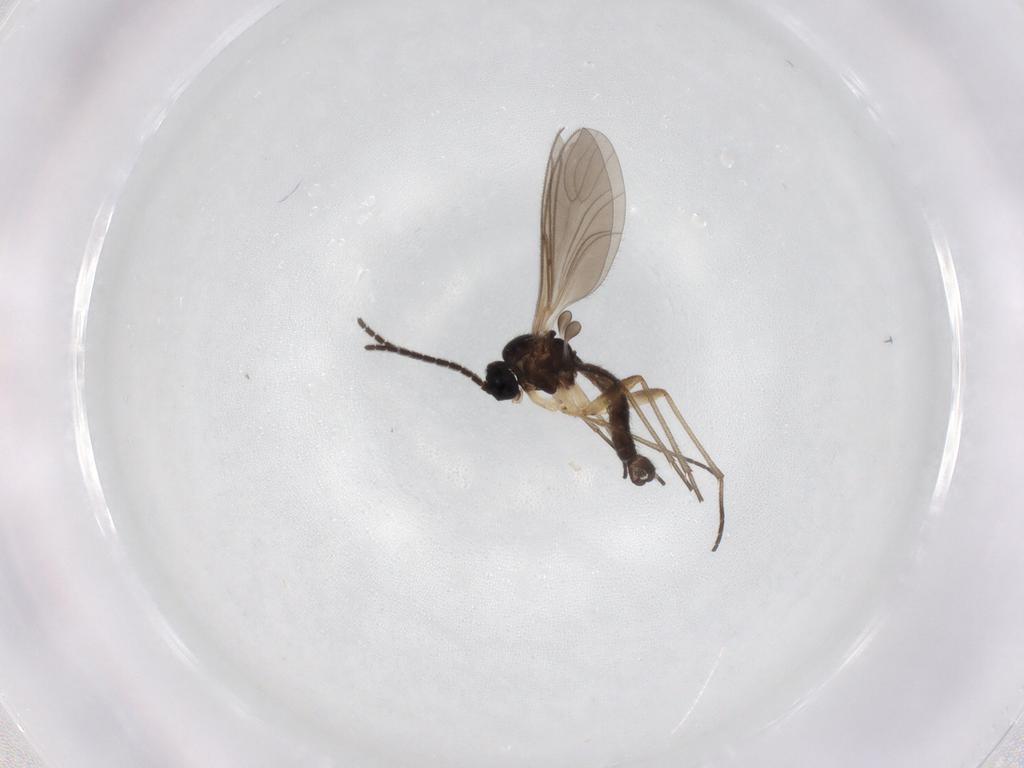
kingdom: Animalia
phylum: Arthropoda
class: Insecta
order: Diptera
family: Sciaridae
